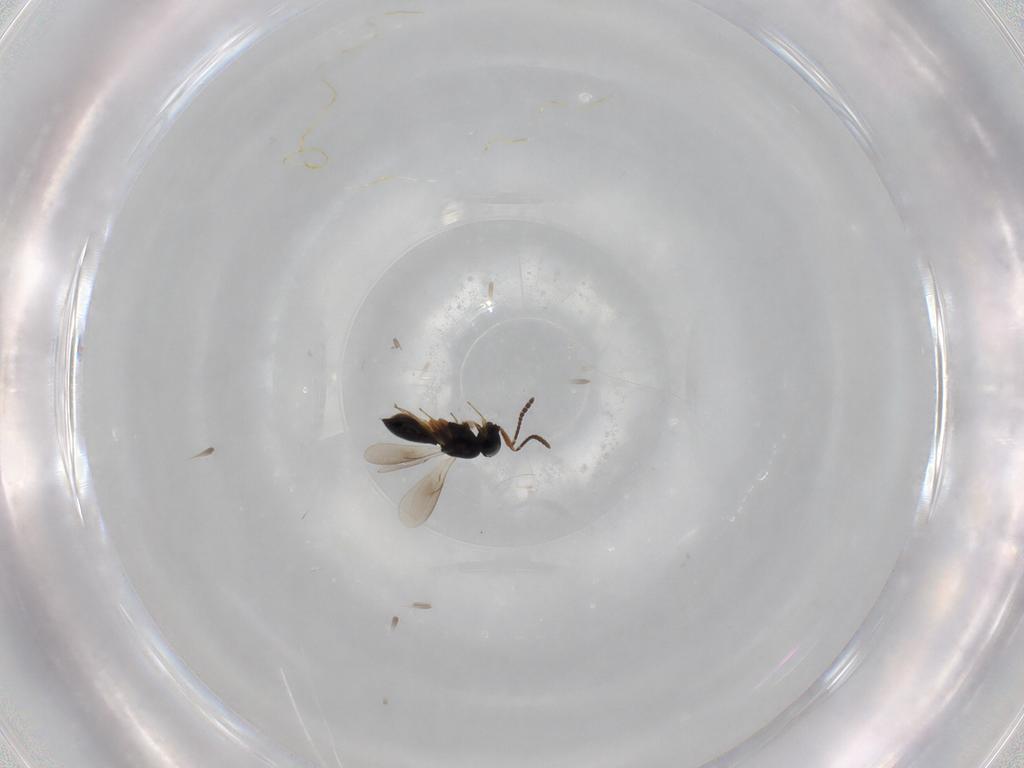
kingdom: Animalia
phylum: Arthropoda
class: Insecta
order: Hymenoptera
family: Scelionidae
